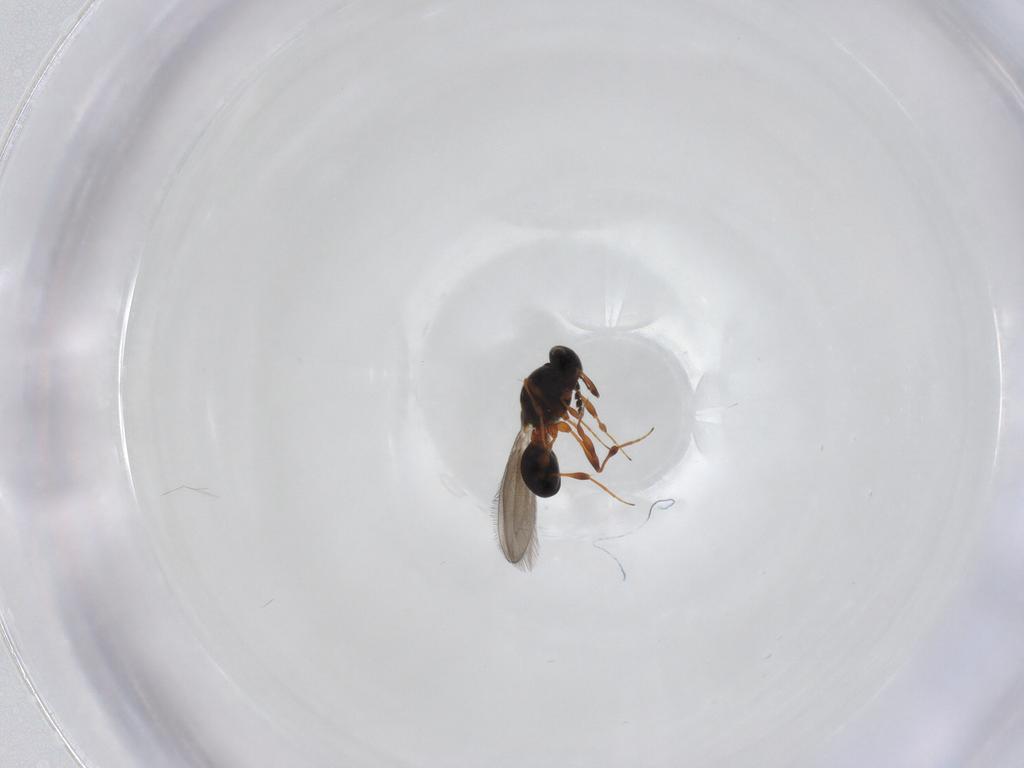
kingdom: Animalia
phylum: Arthropoda
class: Insecta
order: Hymenoptera
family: Platygastridae
